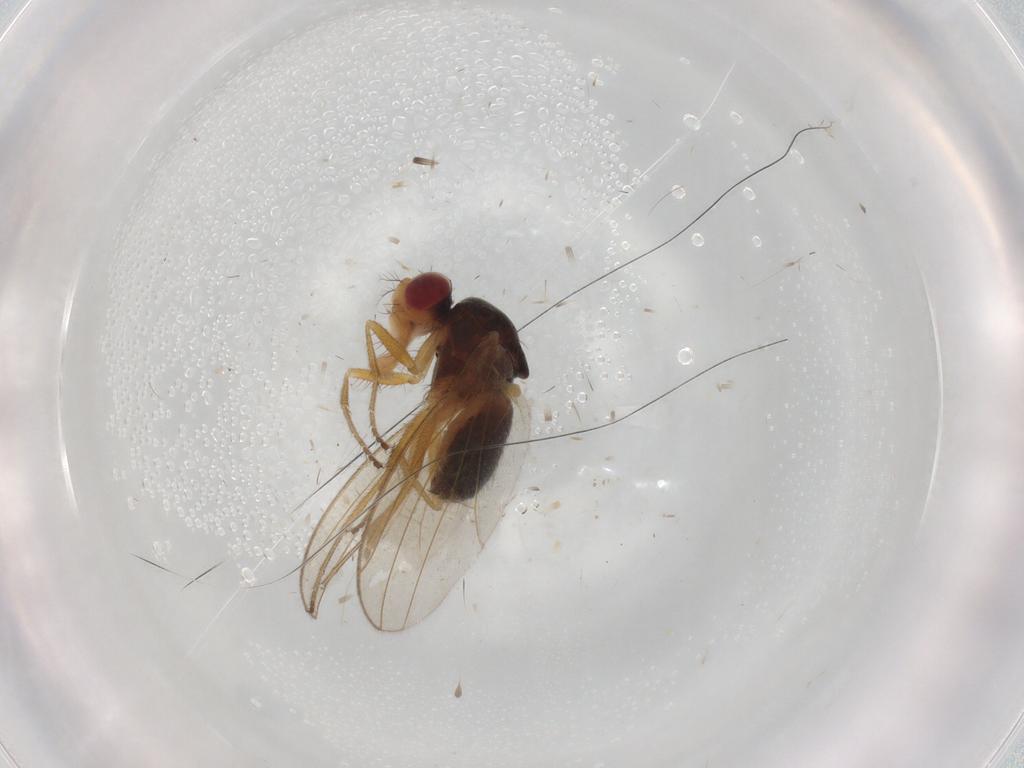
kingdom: Animalia
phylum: Arthropoda
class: Insecta
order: Diptera
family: Drosophilidae
